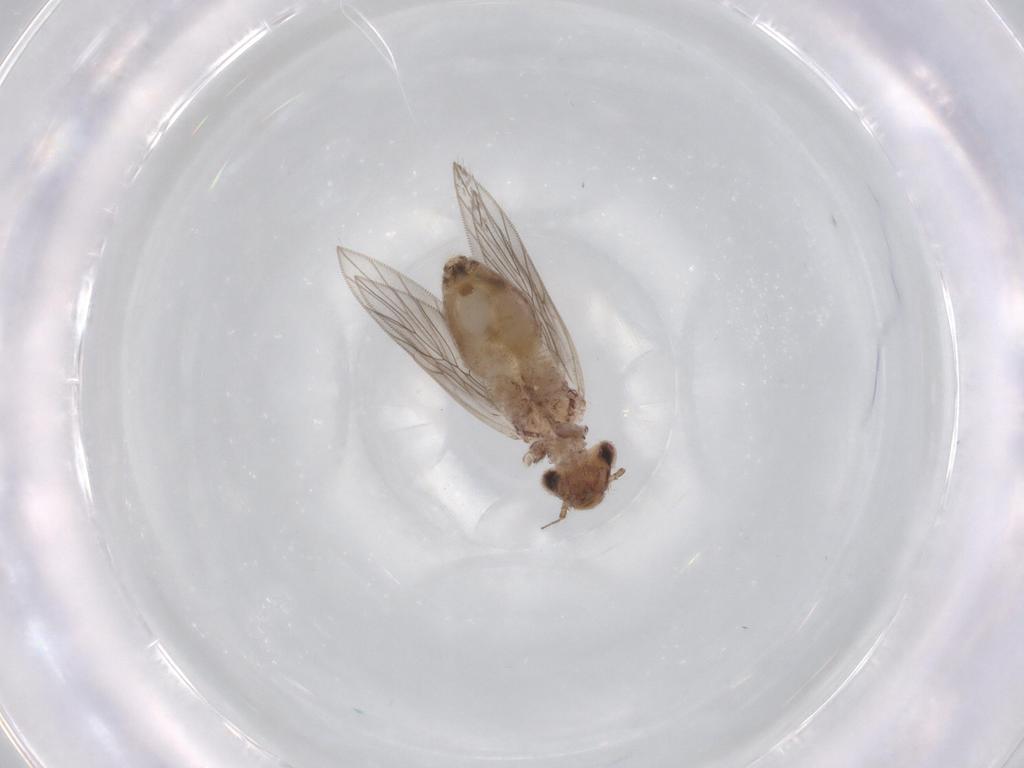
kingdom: Animalia
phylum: Arthropoda
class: Insecta
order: Psocodea
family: Lepidopsocidae
